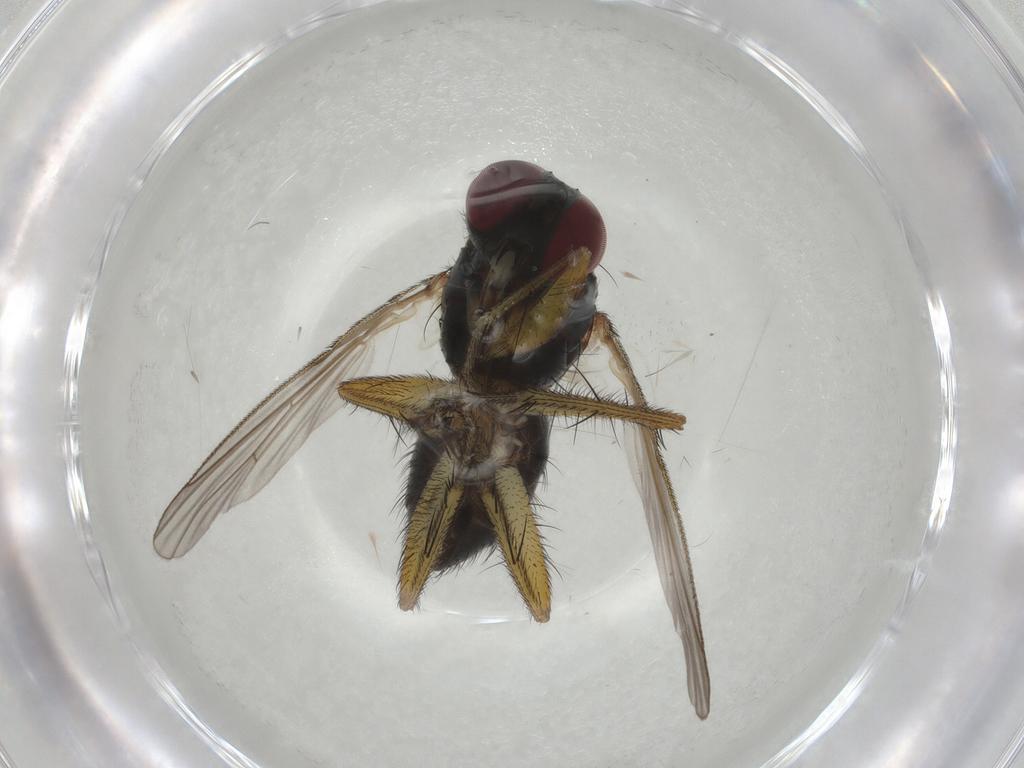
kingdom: Animalia
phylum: Arthropoda
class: Insecta
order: Diptera
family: Muscidae
